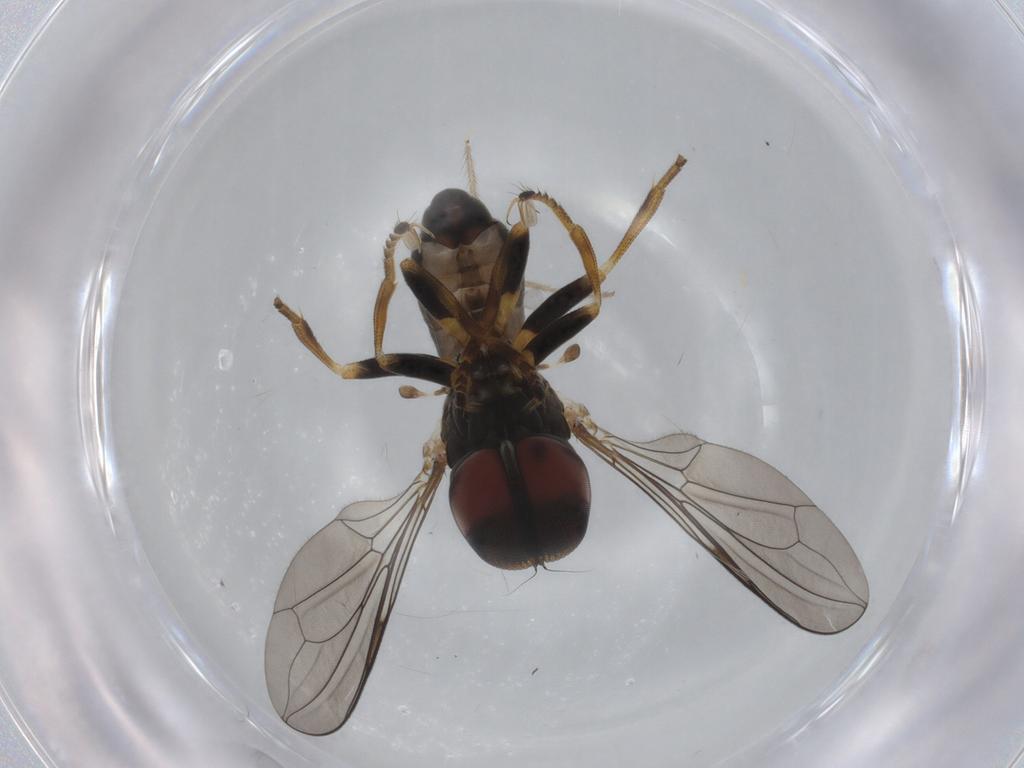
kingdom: Animalia
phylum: Arthropoda
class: Insecta
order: Diptera
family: Pipunculidae
